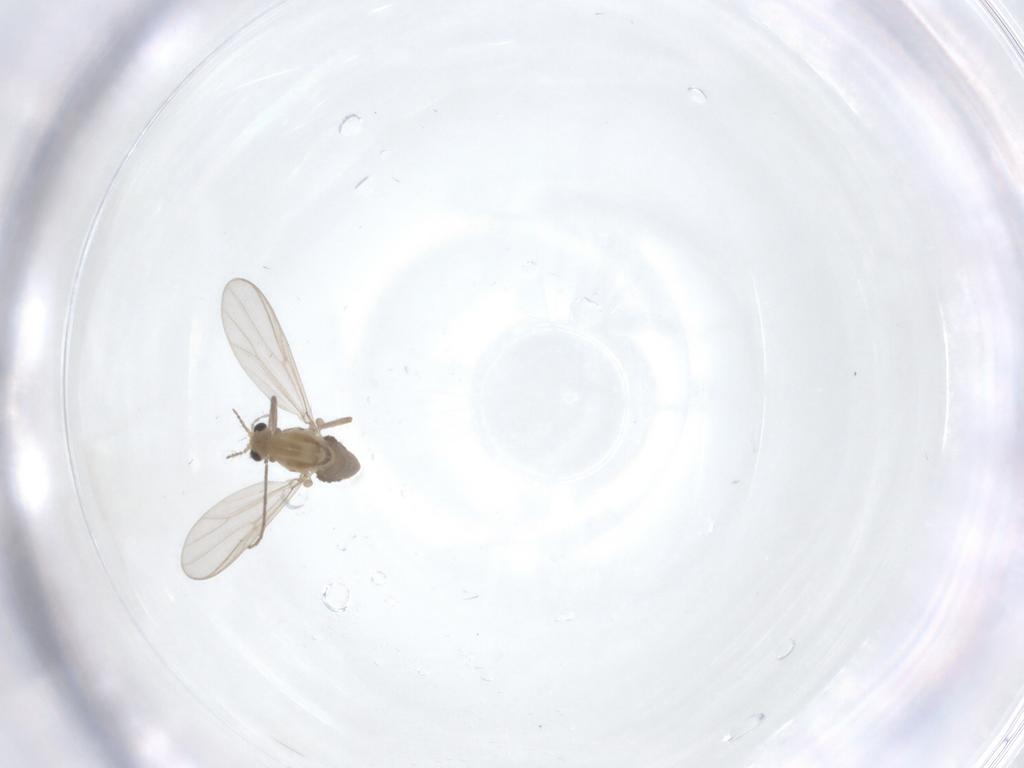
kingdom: Animalia
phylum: Arthropoda
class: Insecta
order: Diptera
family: Chironomidae
